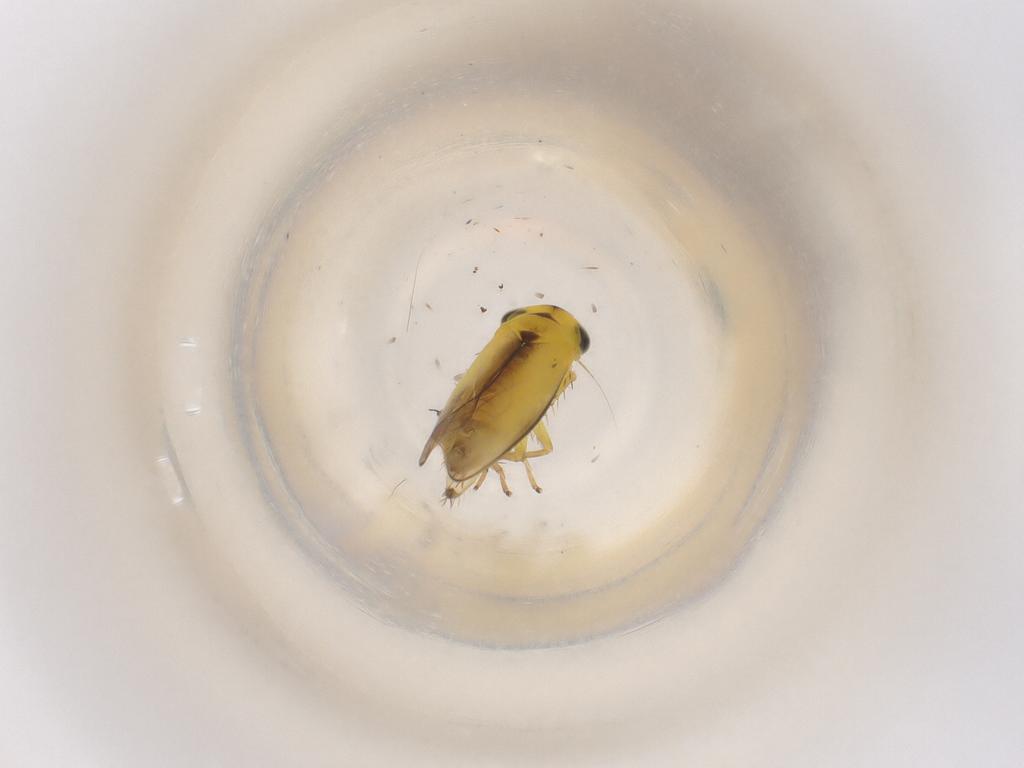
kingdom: Animalia
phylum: Arthropoda
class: Insecta
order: Hemiptera
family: Cicadellidae
